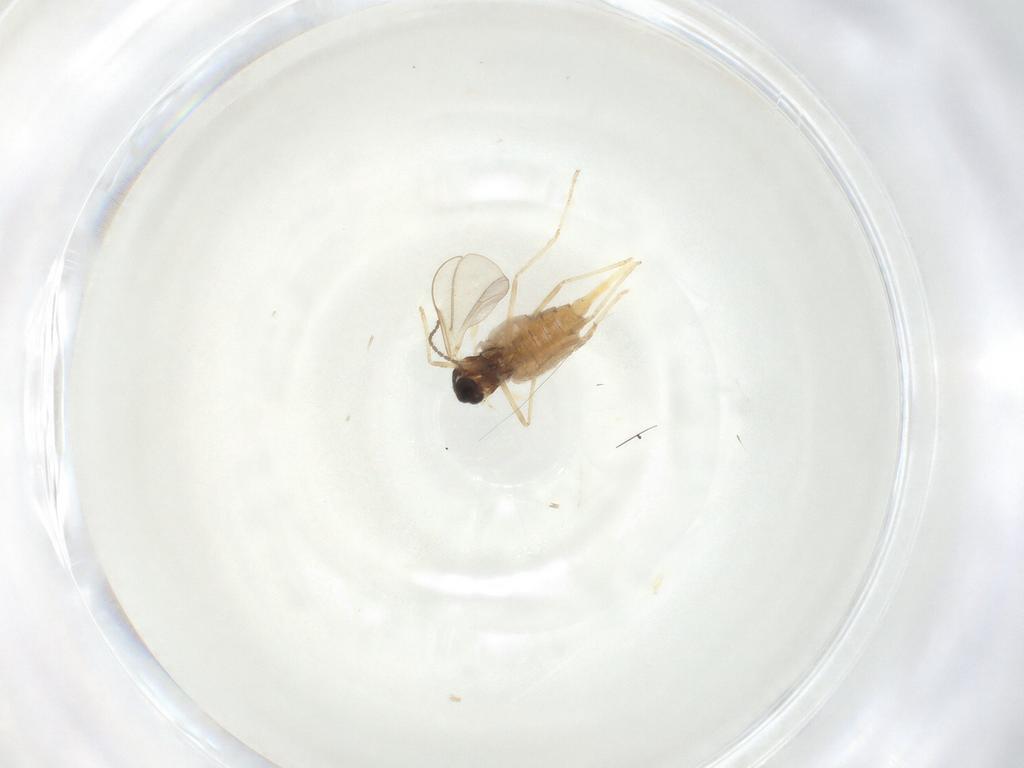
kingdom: Animalia
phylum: Arthropoda
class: Insecta
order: Diptera
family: Cecidomyiidae
